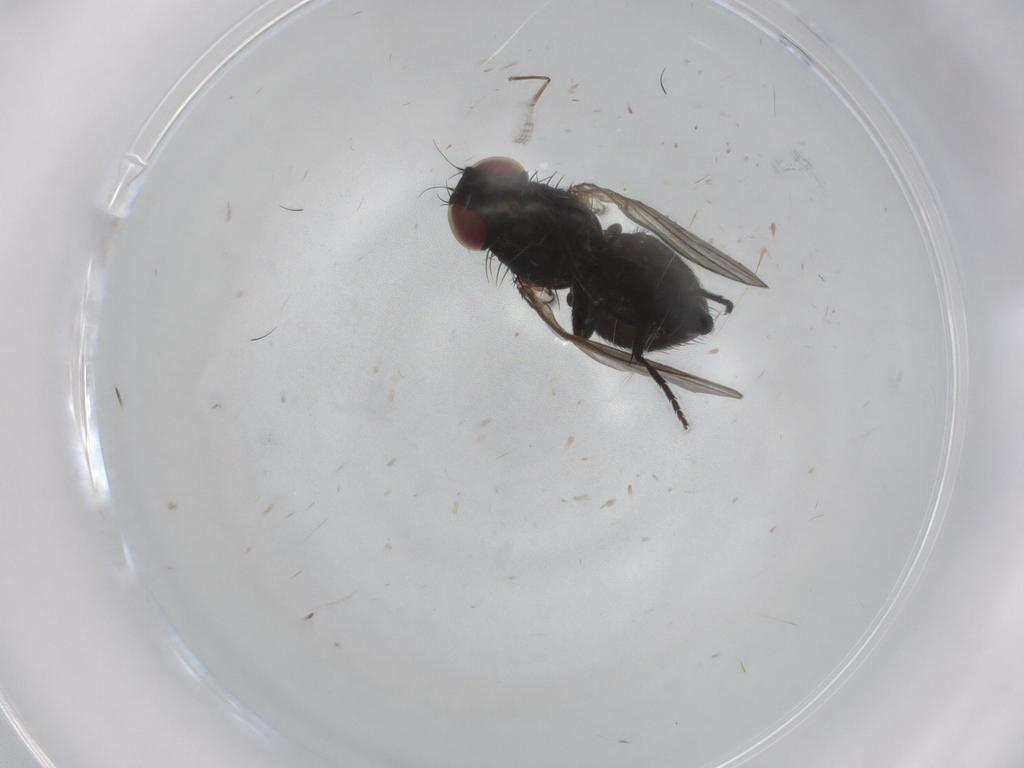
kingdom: Animalia
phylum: Arthropoda
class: Insecta
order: Diptera
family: Agromyzidae
